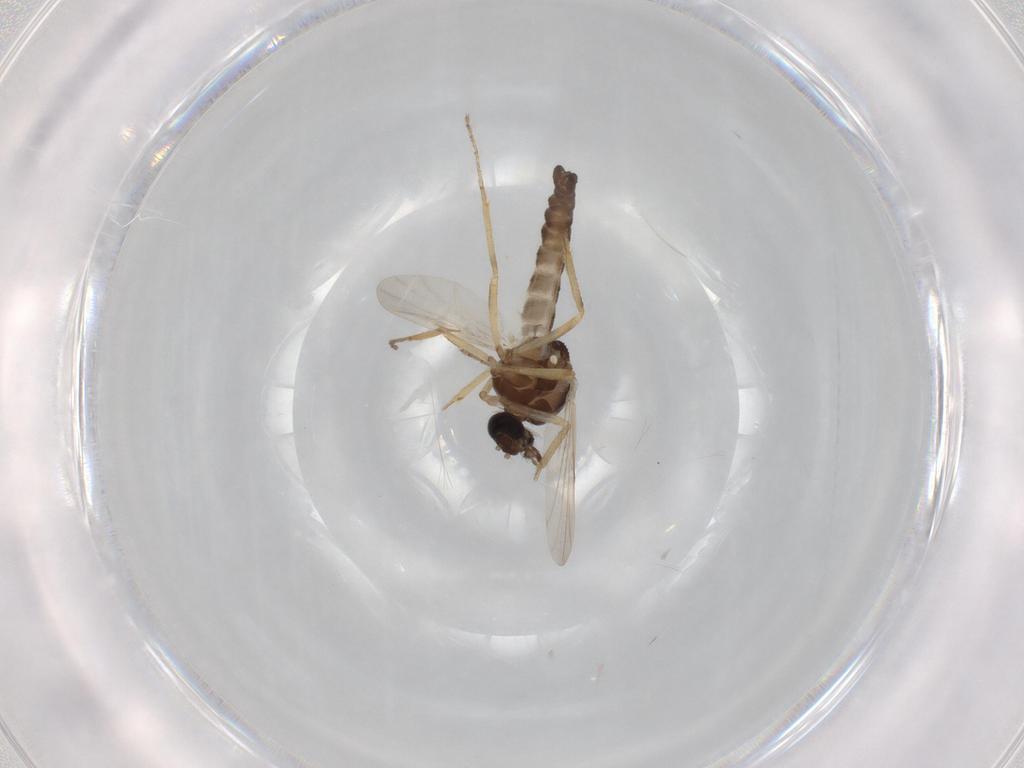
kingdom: Animalia
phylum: Arthropoda
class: Insecta
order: Diptera
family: Ceratopogonidae
